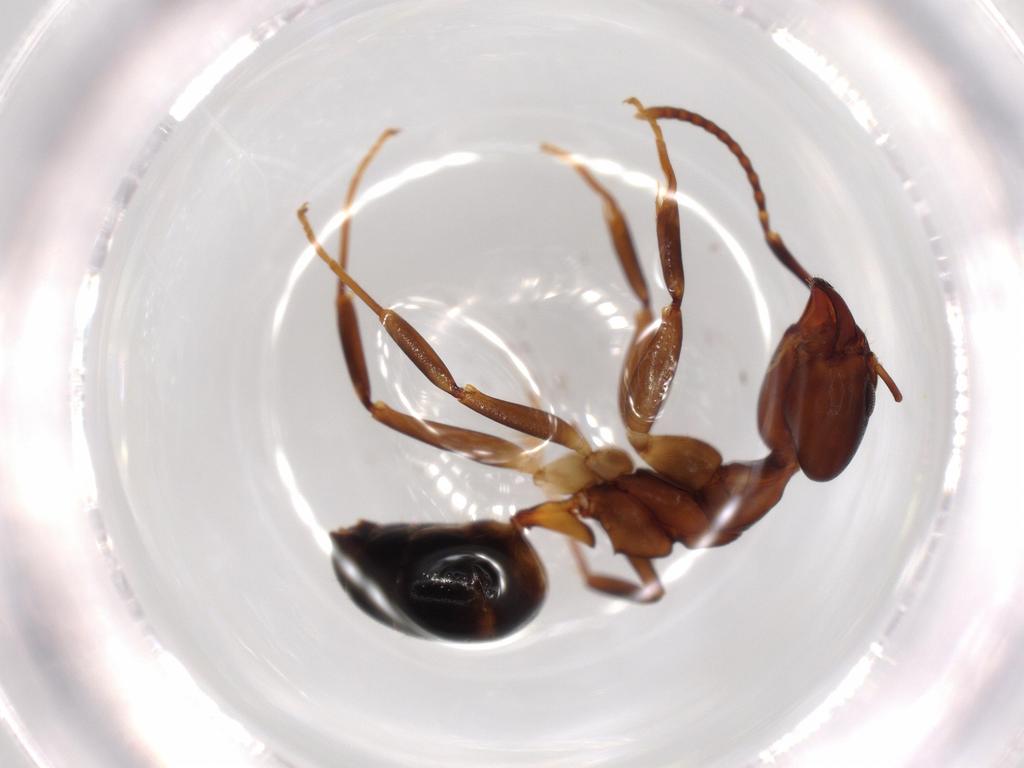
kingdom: Animalia
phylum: Arthropoda
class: Insecta
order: Hymenoptera
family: Formicidae
